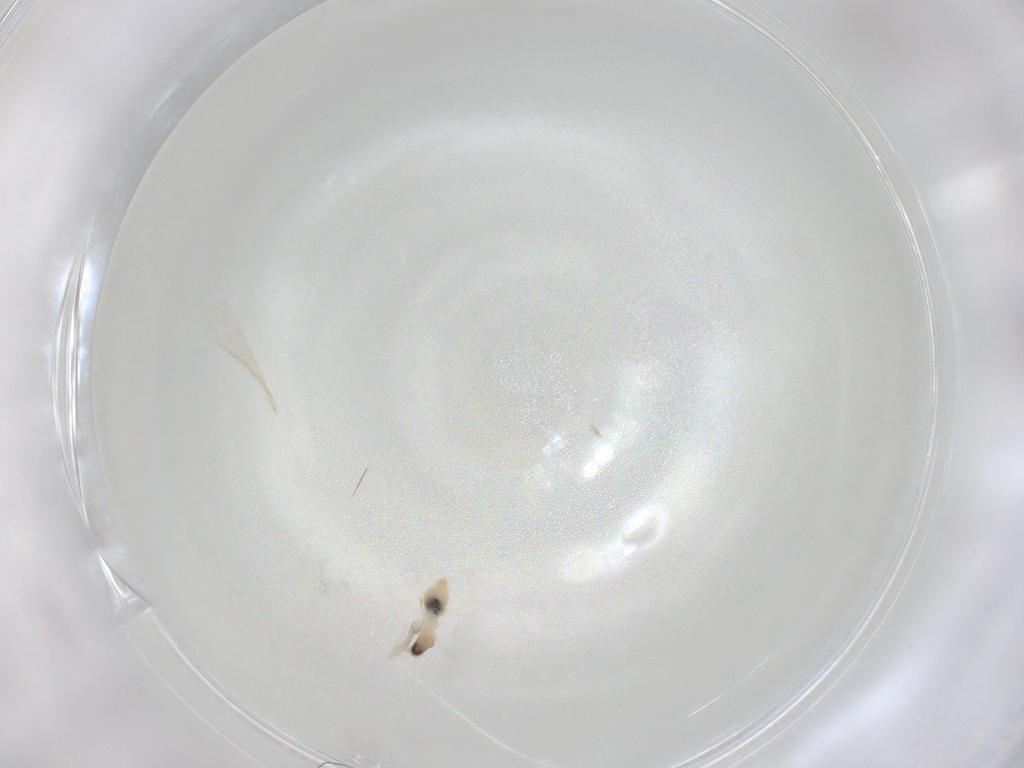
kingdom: Animalia
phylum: Arthropoda
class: Insecta
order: Diptera
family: Cecidomyiidae
